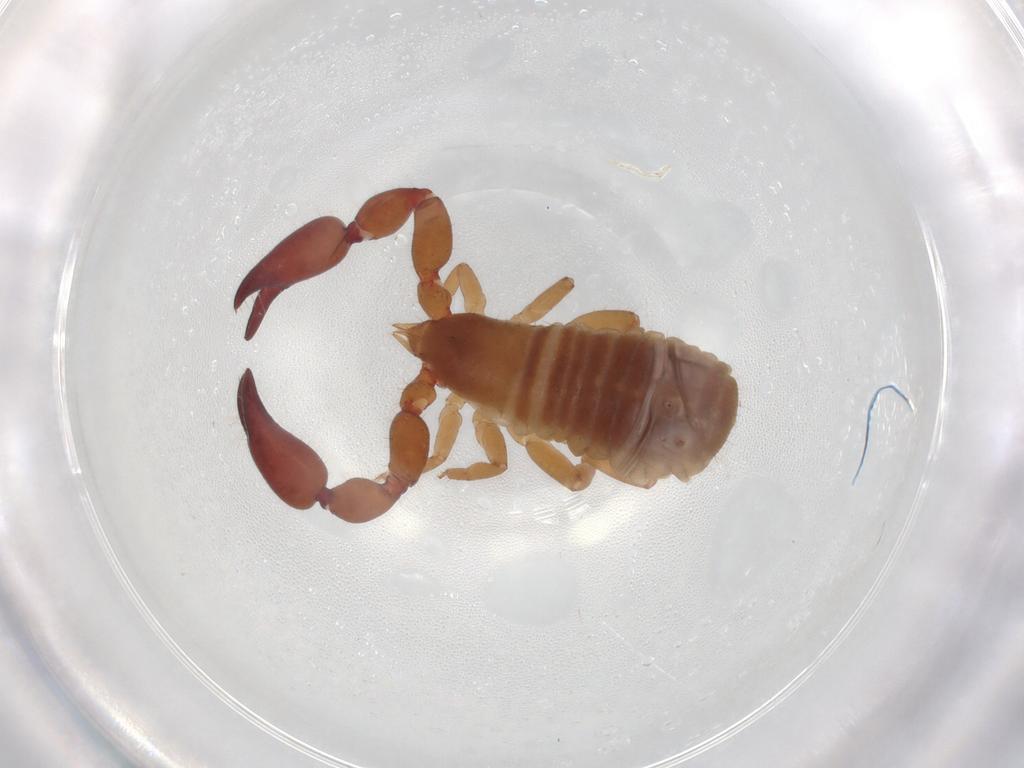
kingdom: Animalia
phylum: Arthropoda
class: Arachnida
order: Pseudoscorpiones
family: Atemnidae
